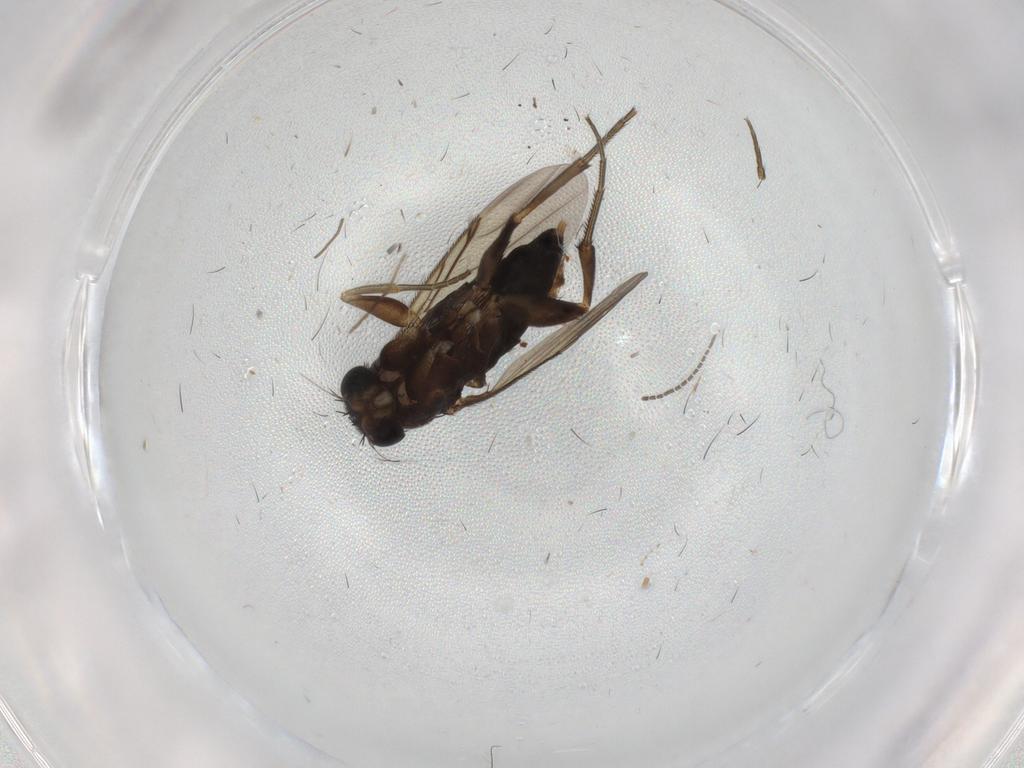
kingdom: Animalia
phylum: Arthropoda
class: Insecta
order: Diptera
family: Phoridae
